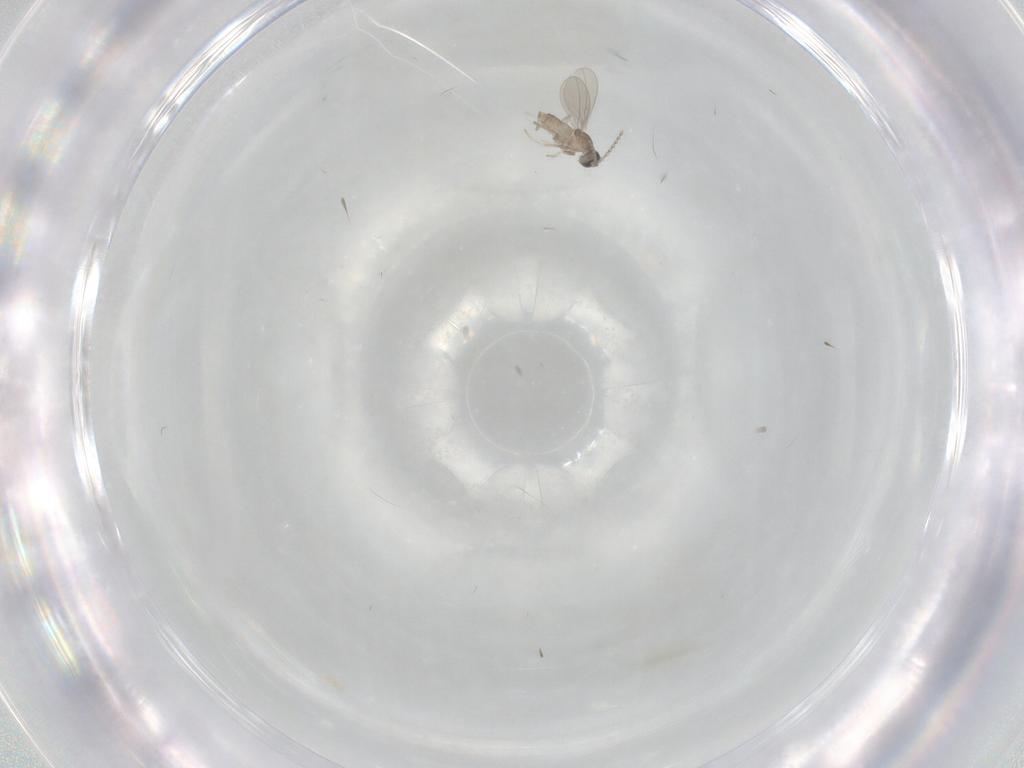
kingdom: Animalia
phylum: Arthropoda
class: Insecta
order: Diptera
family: Cecidomyiidae
